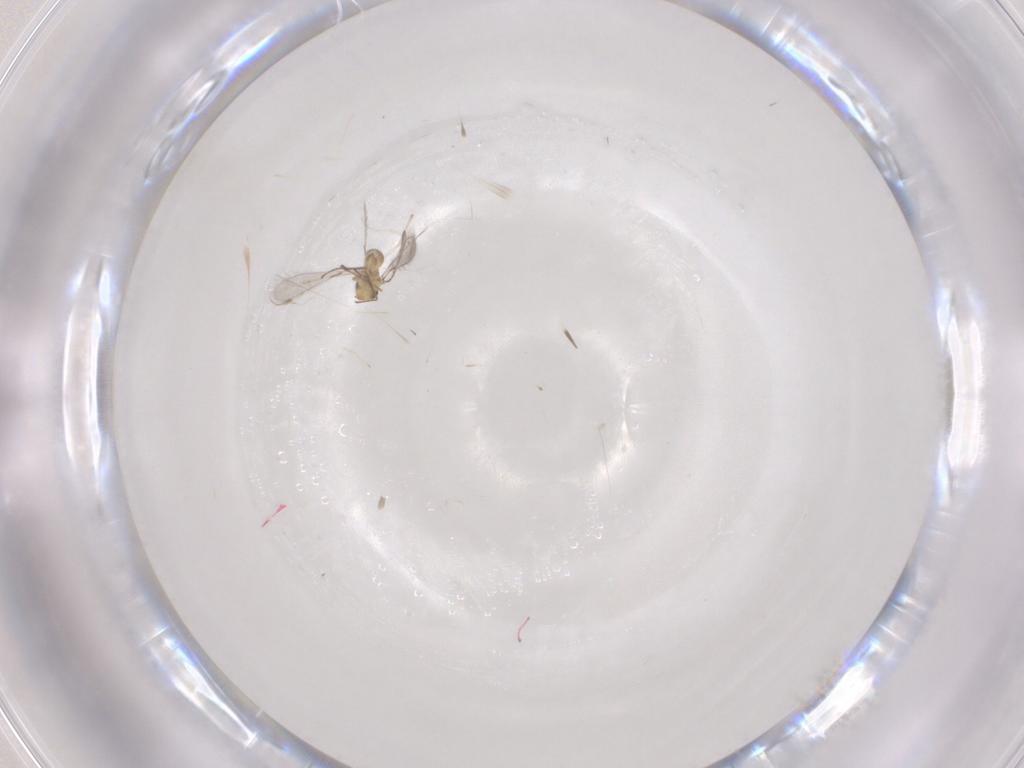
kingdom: Animalia
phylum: Arthropoda
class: Insecta
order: Hymenoptera
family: Mymaridae
